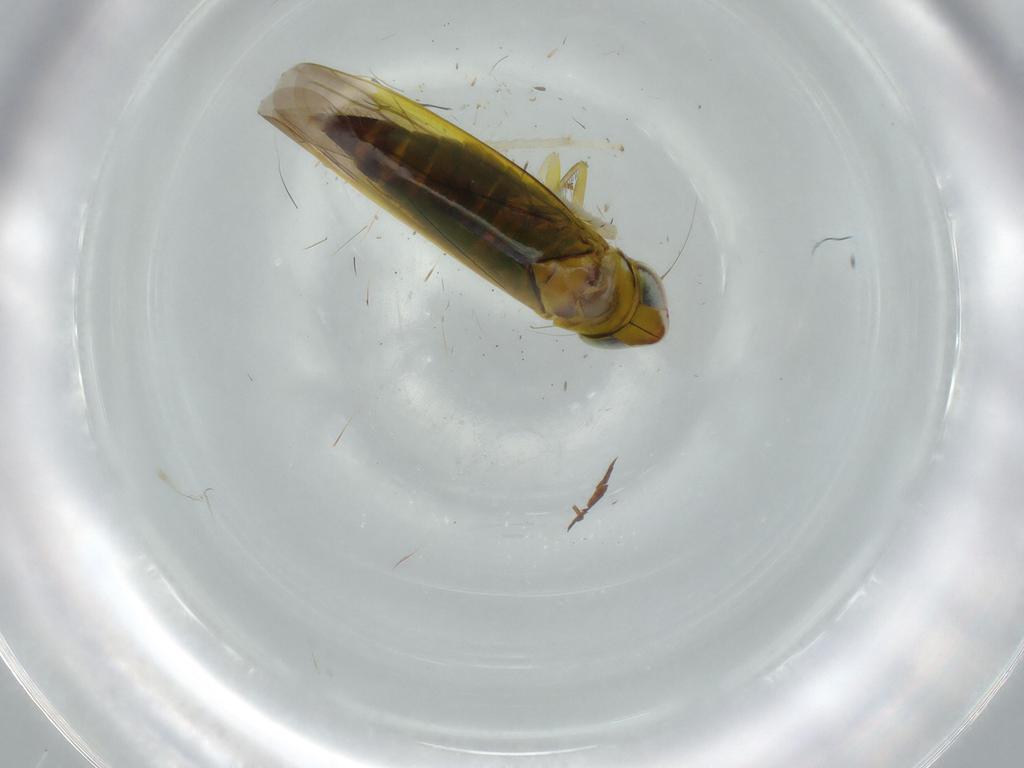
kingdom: Animalia
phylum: Arthropoda
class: Insecta
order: Hemiptera
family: Cicadellidae
